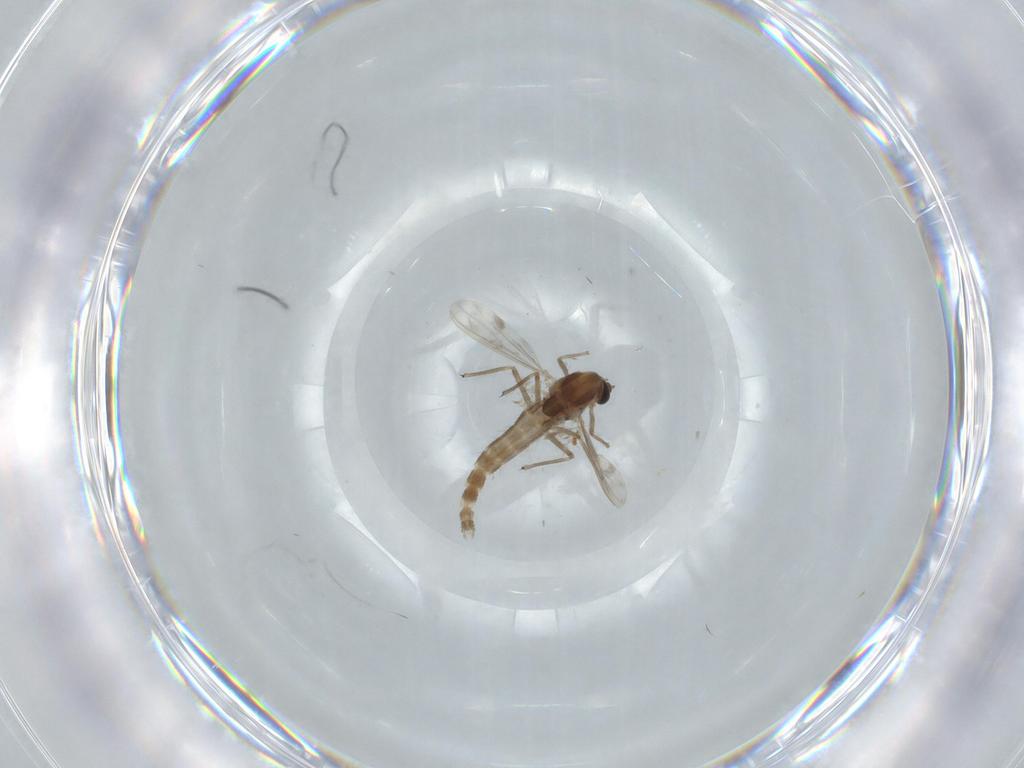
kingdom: Animalia
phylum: Arthropoda
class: Insecta
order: Diptera
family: Chironomidae
